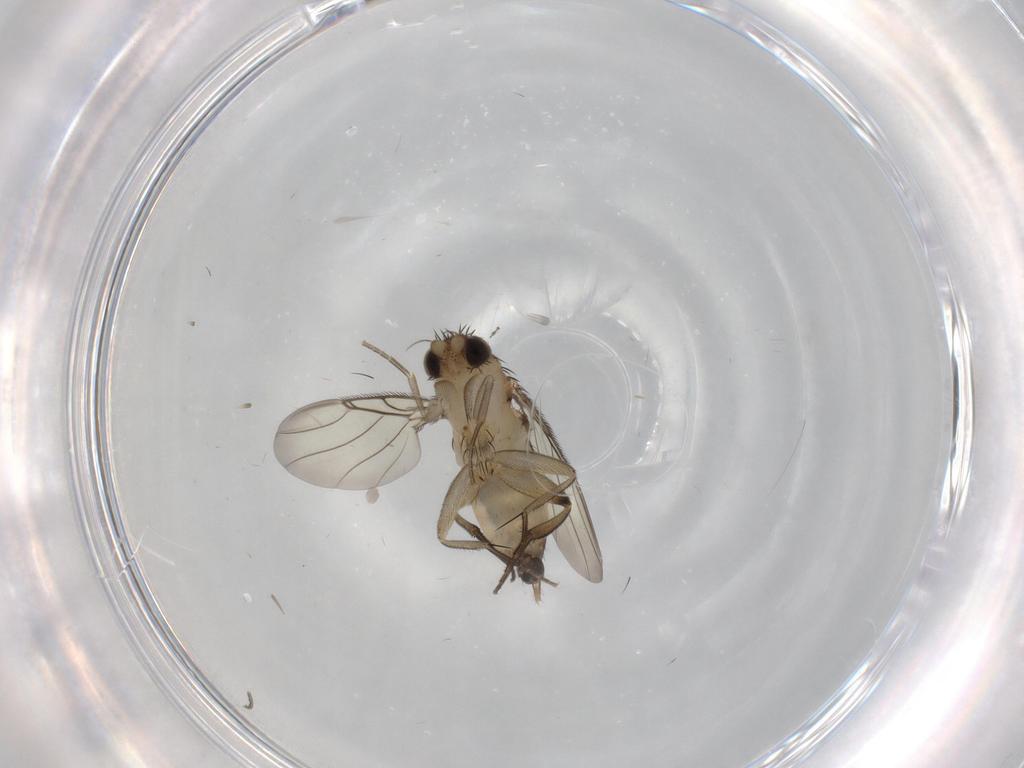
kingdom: Animalia
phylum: Arthropoda
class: Insecta
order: Diptera
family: Phoridae
